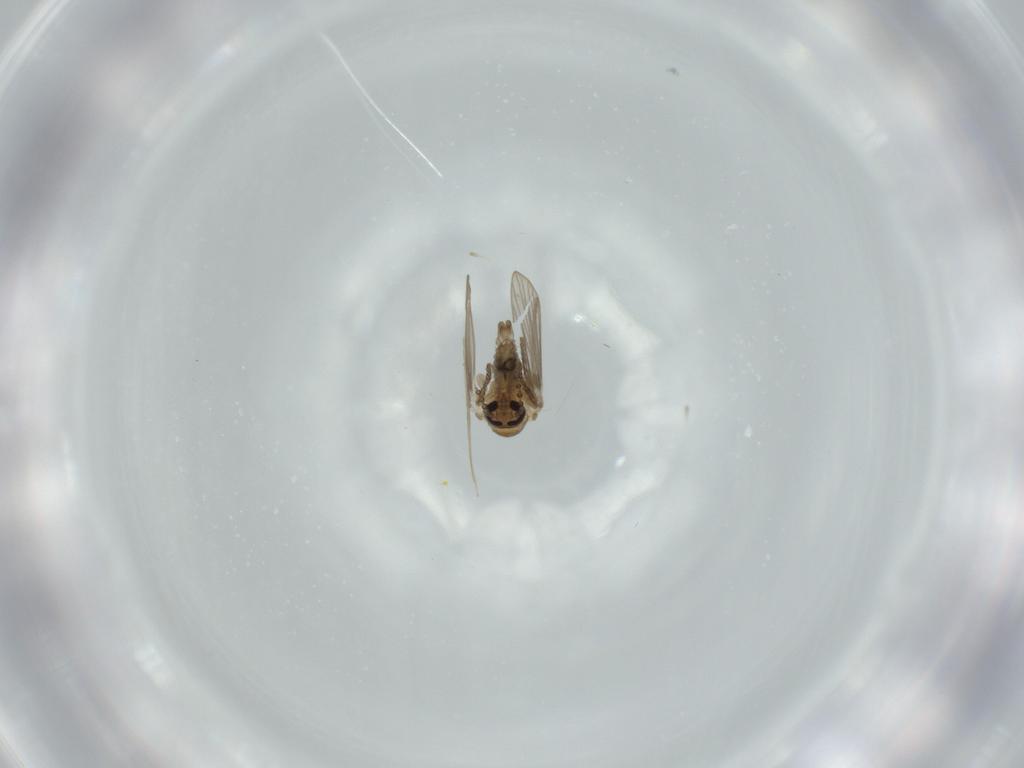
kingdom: Animalia
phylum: Arthropoda
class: Insecta
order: Diptera
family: Psychodidae
